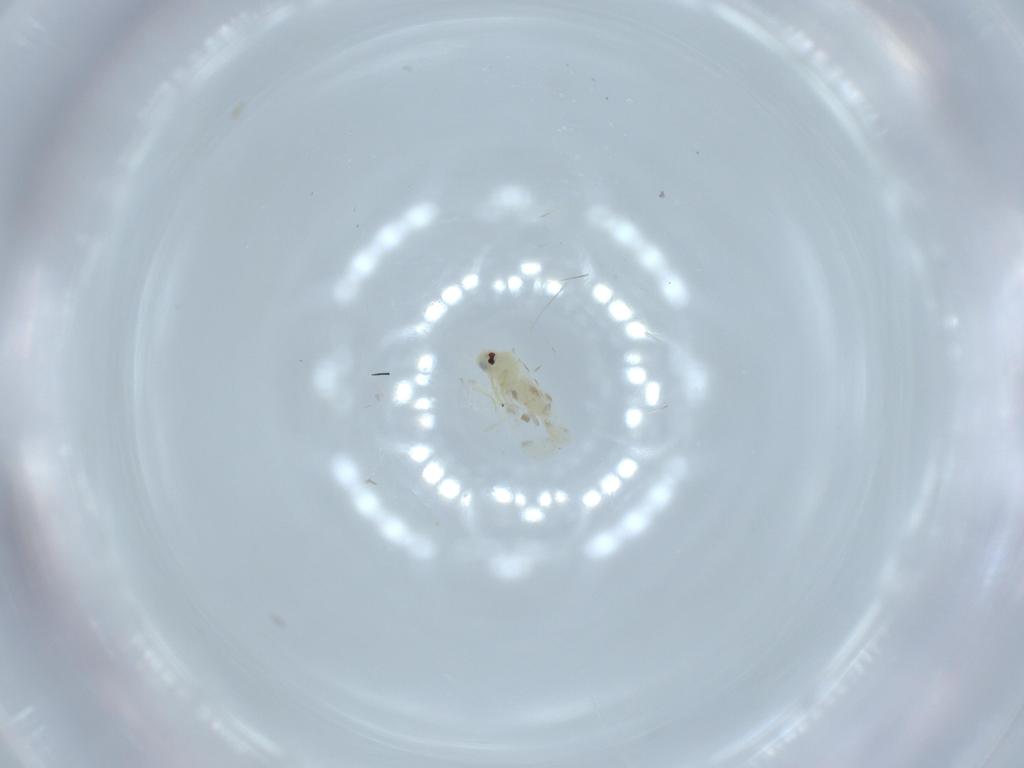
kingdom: Animalia
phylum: Arthropoda
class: Insecta
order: Hemiptera
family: Aleyrodidae
